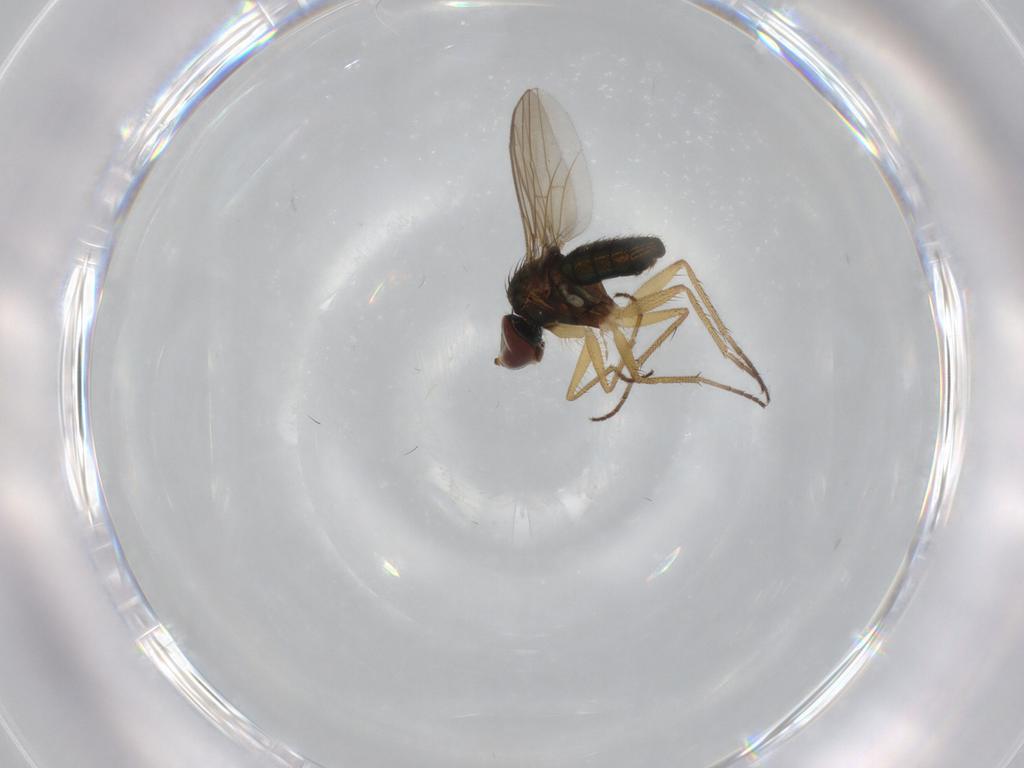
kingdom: Animalia
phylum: Arthropoda
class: Insecta
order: Diptera
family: Ceratopogonidae
